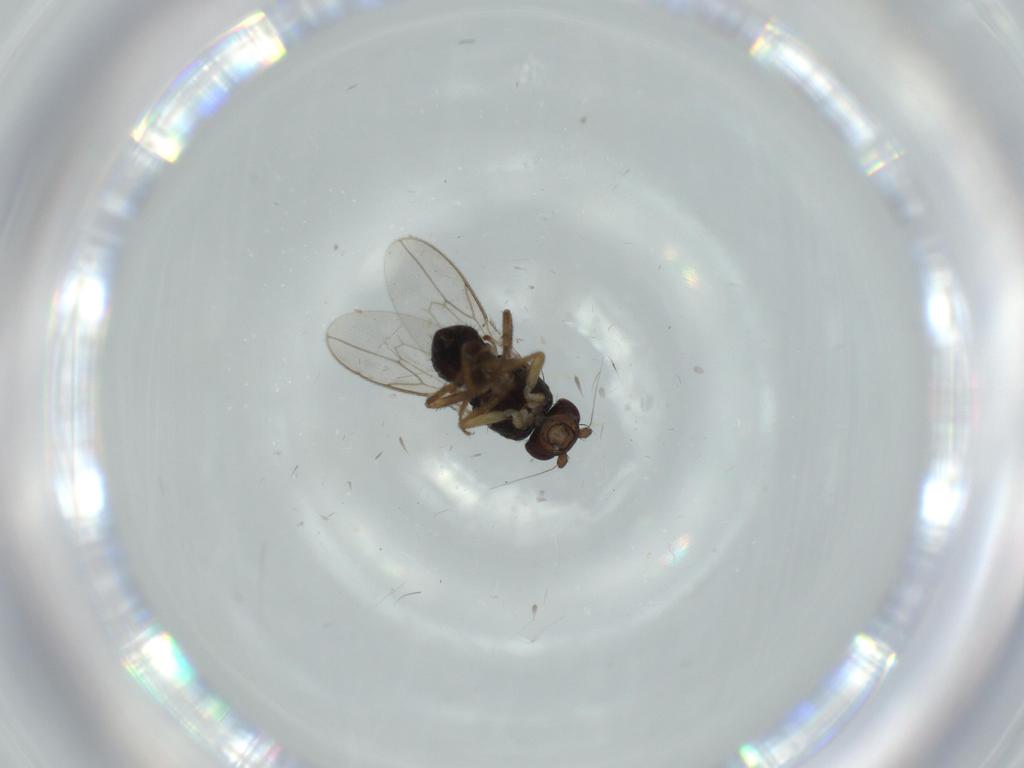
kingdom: Animalia
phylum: Arthropoda
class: Insecta
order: Diptera
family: Sphaeroceridae
